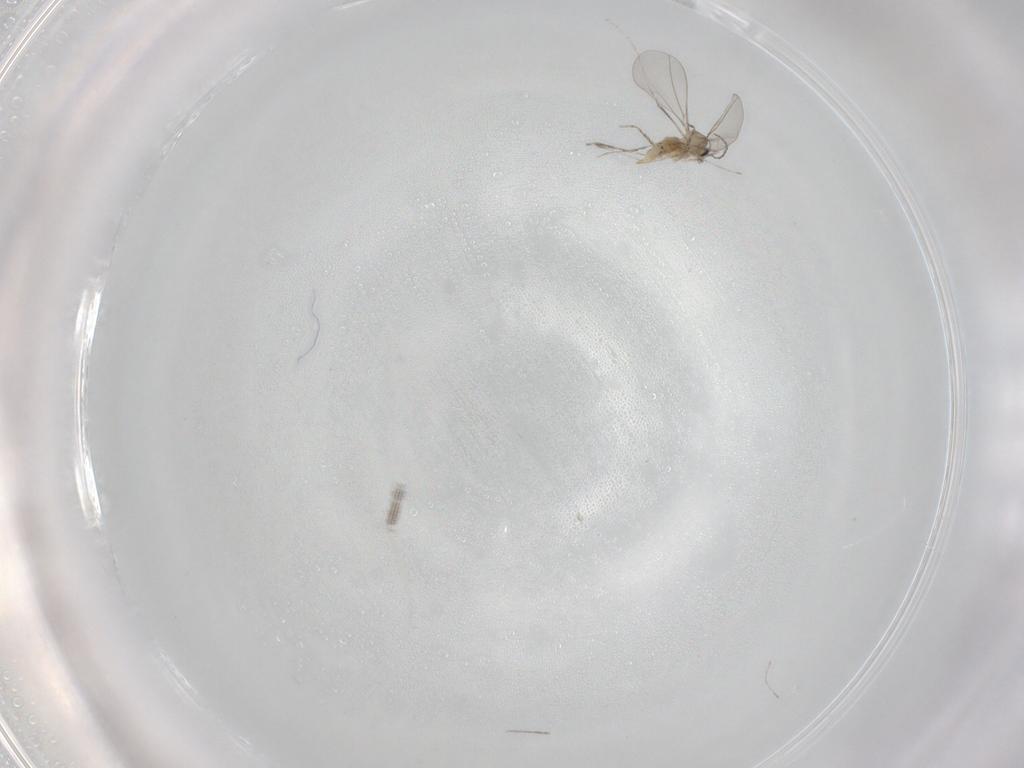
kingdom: Animalia
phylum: Arthropoda
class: Insecta
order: Diptera
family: Cecidomyiidae
